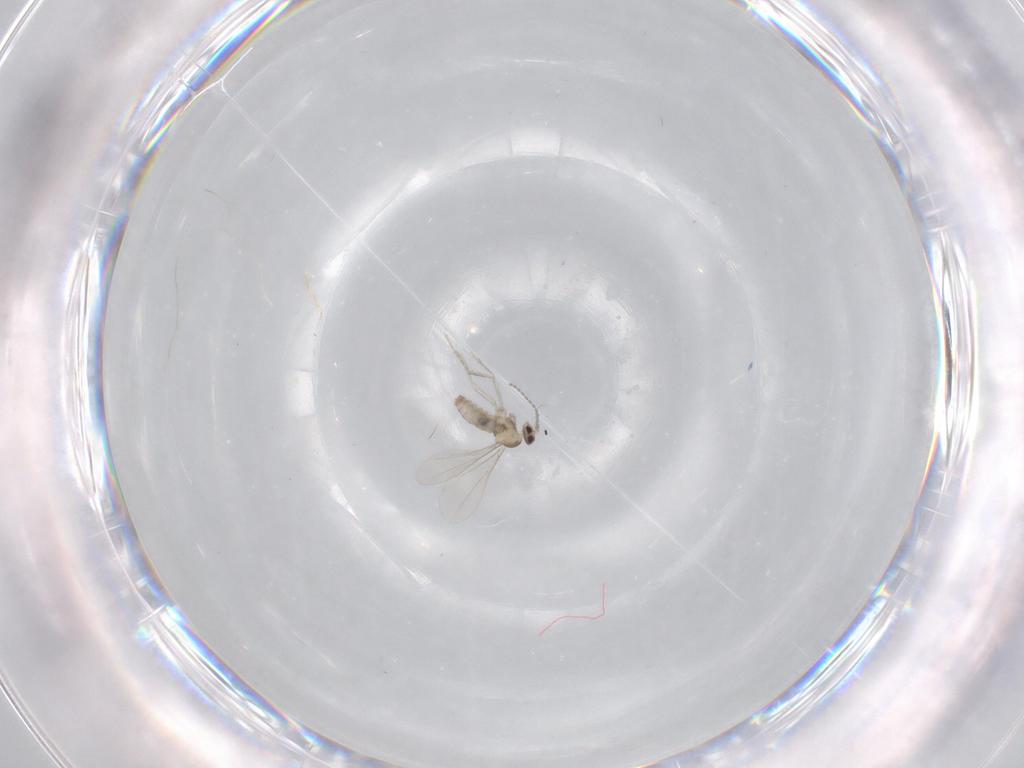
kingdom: Animalia
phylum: Arthropoda
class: Insecta
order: Diptera
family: Cecidomyiidae
